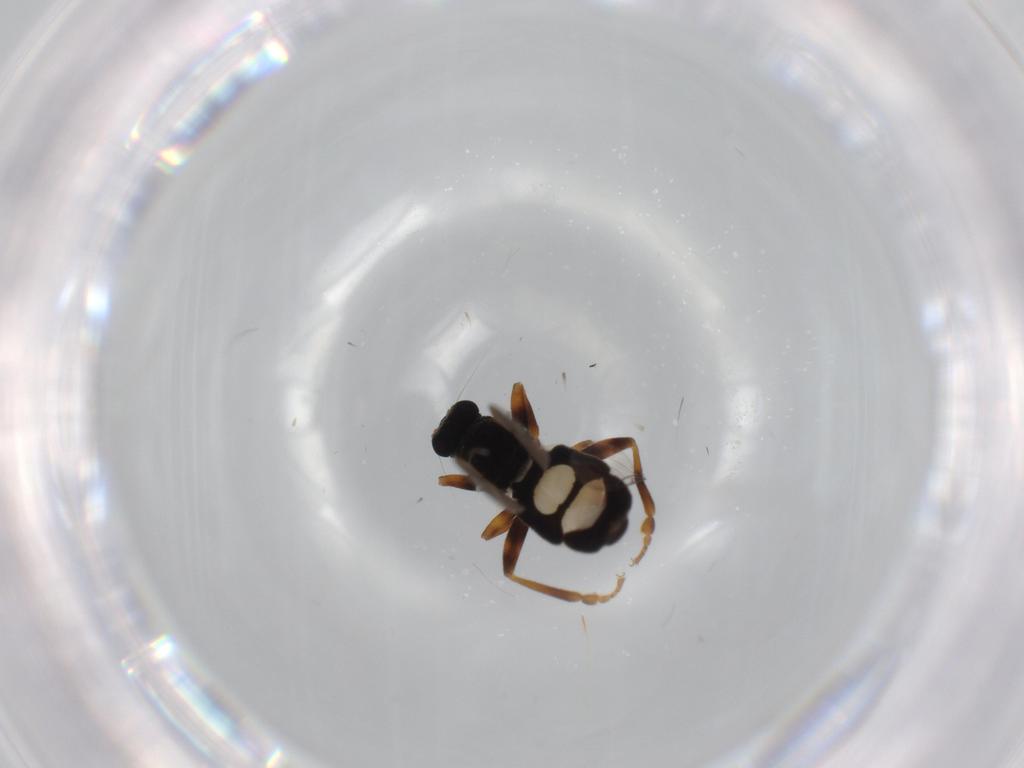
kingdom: Animalia
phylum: Arthropoda
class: Insecta
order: Diptera
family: Sphaeroceridae
